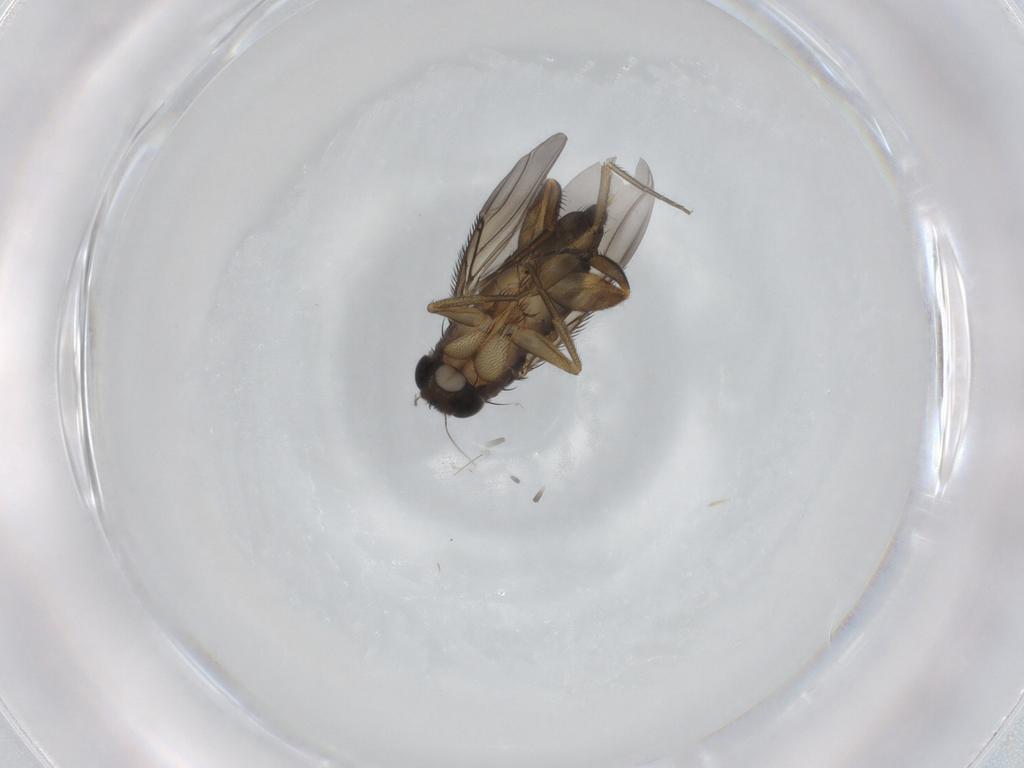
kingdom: Animalia
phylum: Arthropoda
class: Insecta
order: Diptera
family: Phoridae
